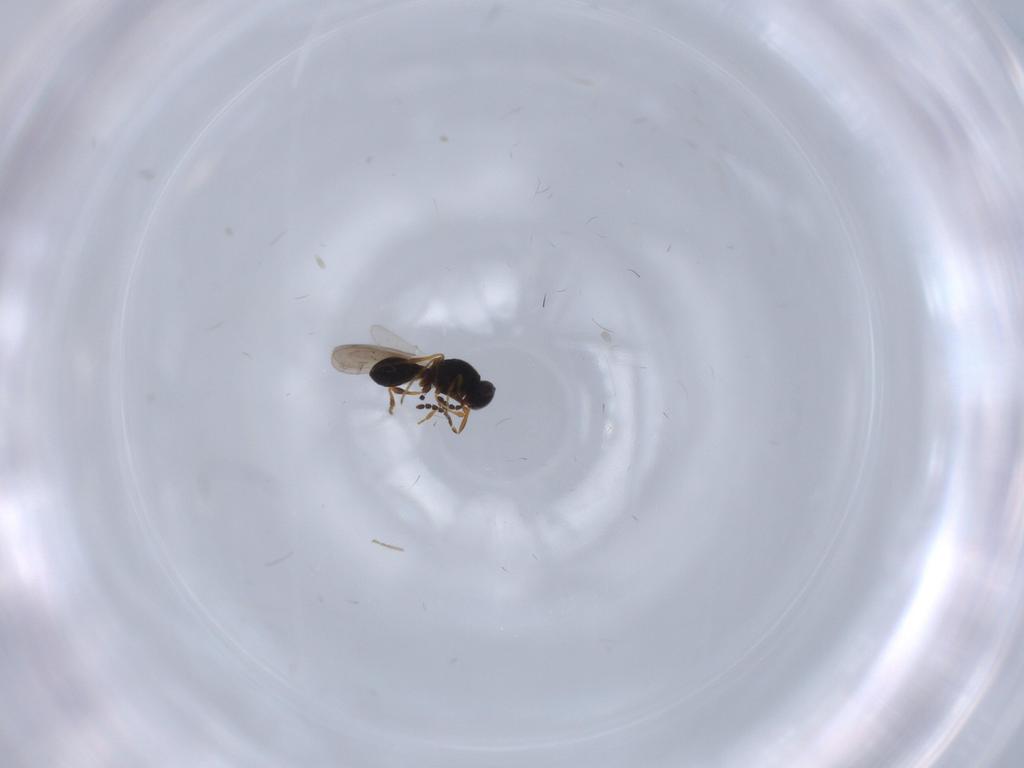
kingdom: Animalia
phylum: Arthropoda
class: Insecta
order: Hymenoptera
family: Platygastridae
